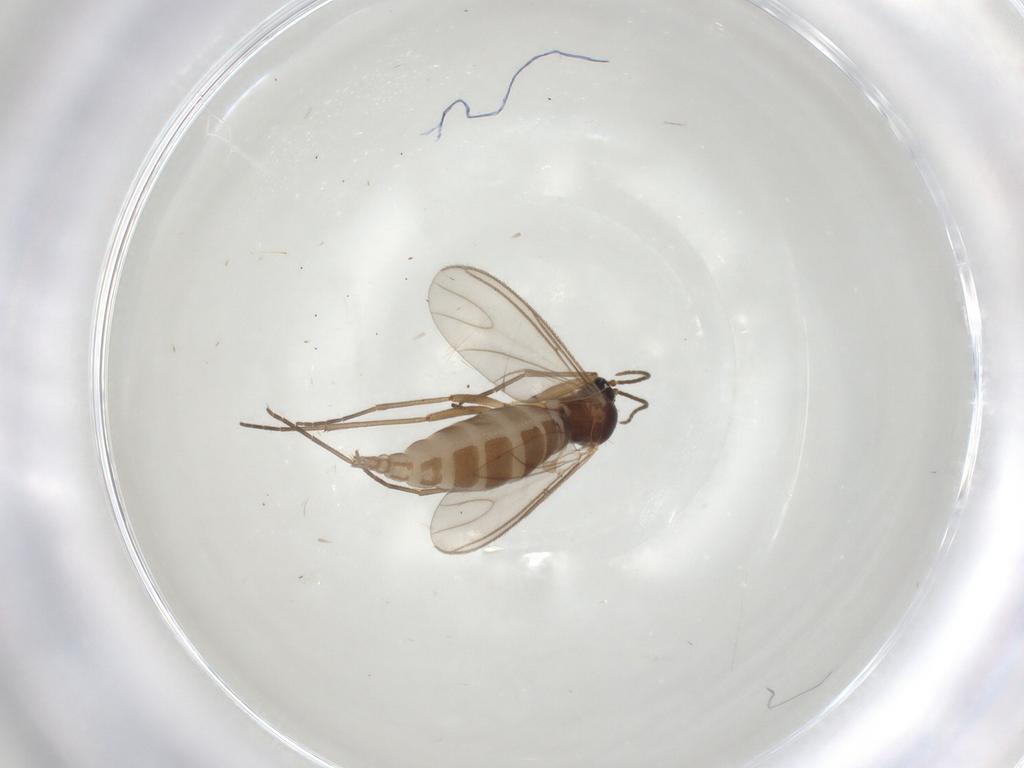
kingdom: Animalia
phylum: Arthropoda
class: Insecta
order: Diptera
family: Sciaridae
